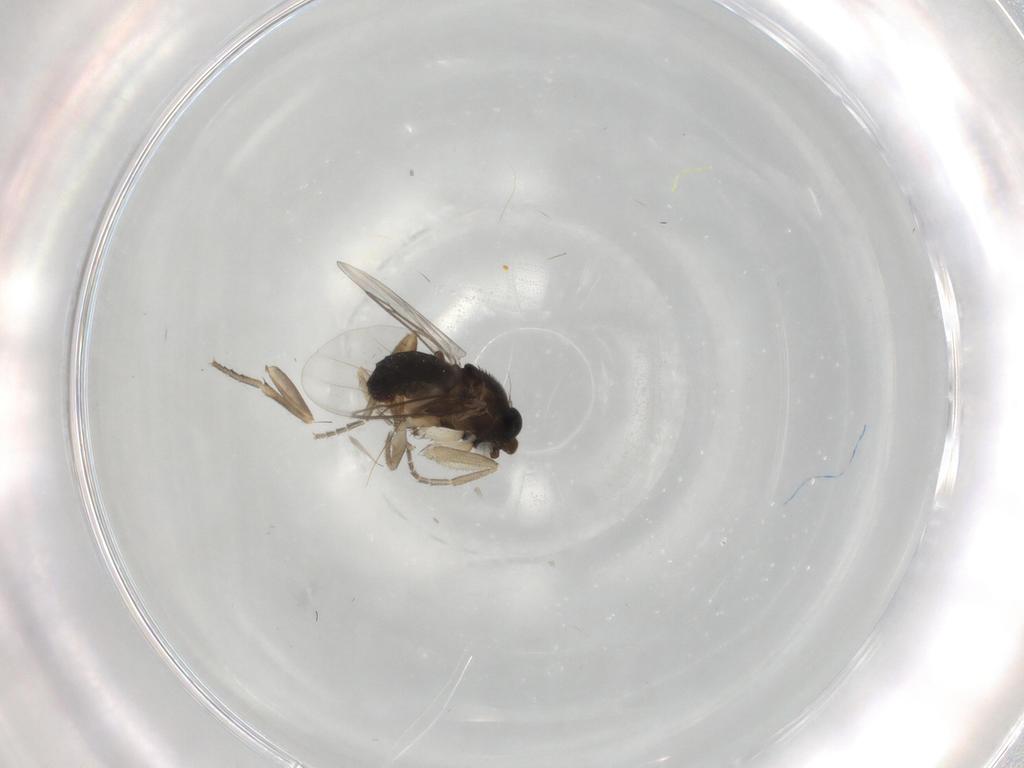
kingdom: Animalia
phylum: Arthropoda
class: Insecta
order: Diptera
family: Phoridae
